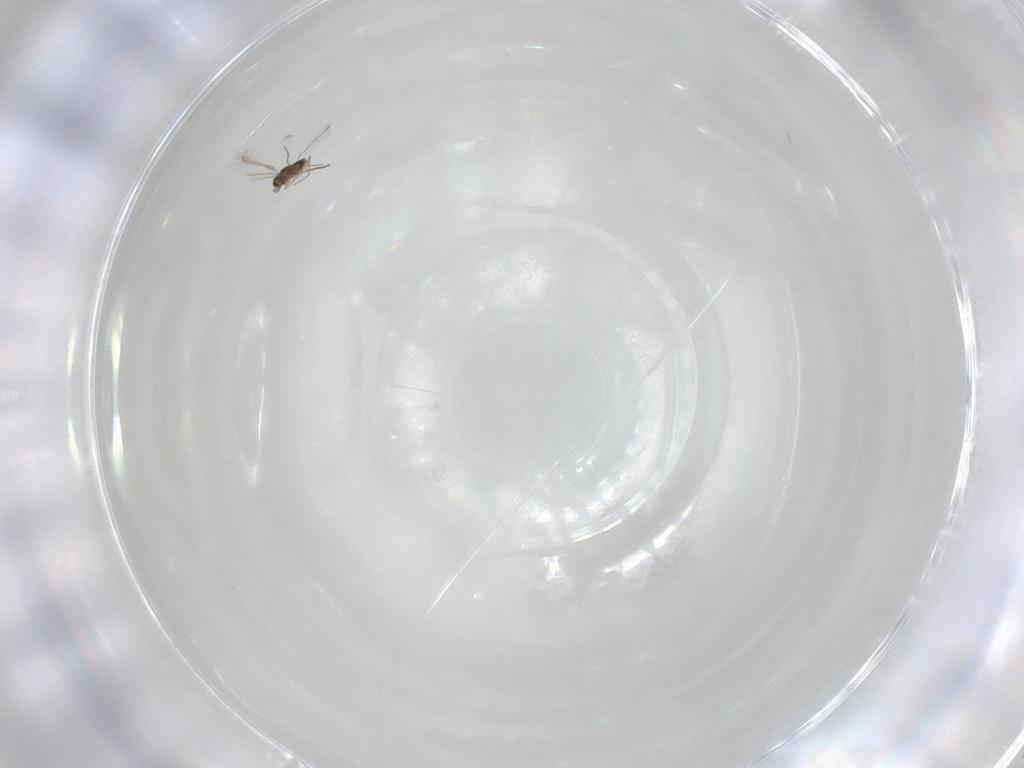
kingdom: Animalia
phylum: Arthropoda
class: Insecta
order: Hymenoptera
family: Mymaridae
